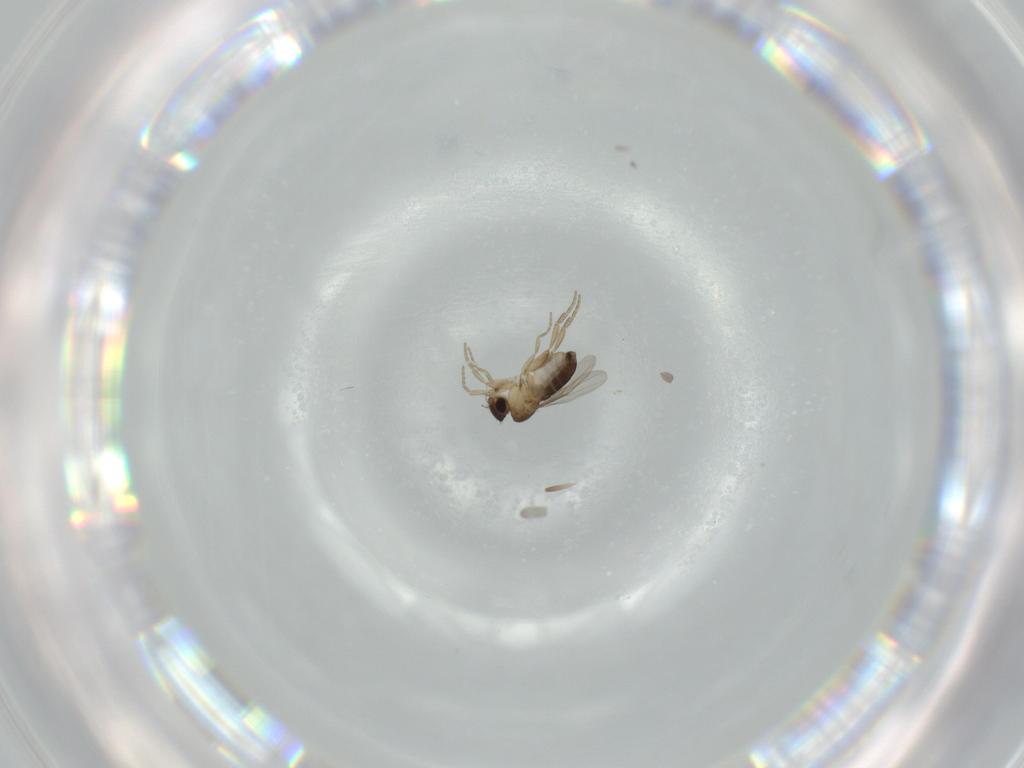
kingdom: Animalia
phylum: Arthropoda
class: Insecta
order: Diptera
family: Phoridae
